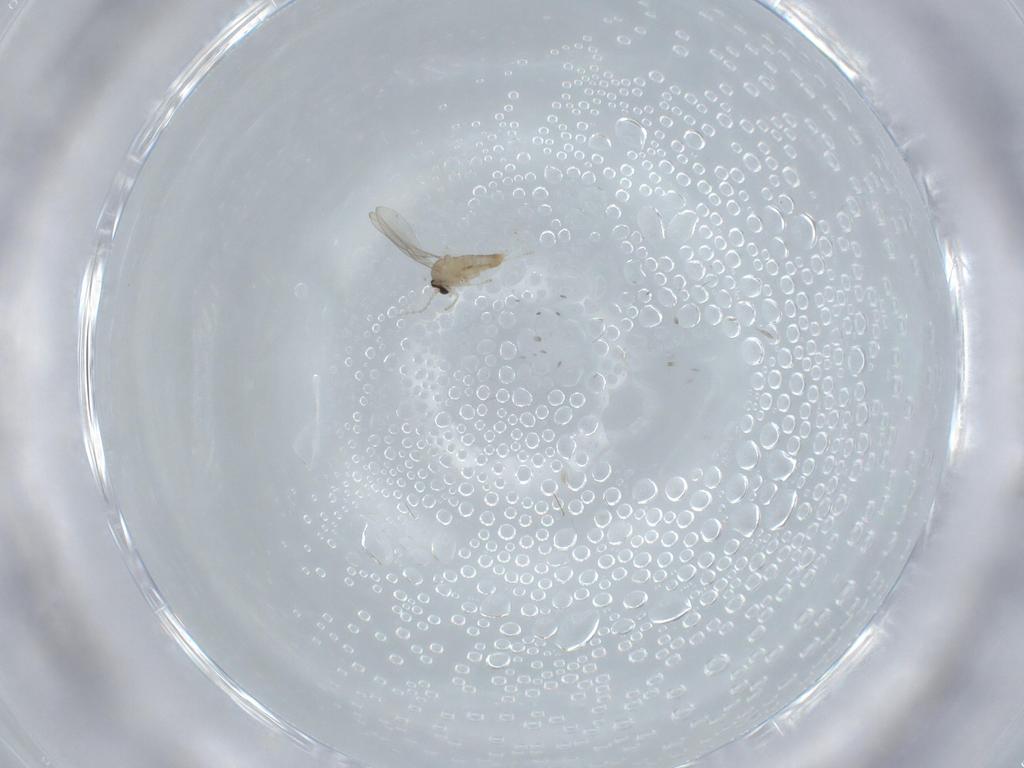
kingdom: Animalia
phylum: Arthropoda
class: Insecta
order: Diptera
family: Cecidomyiidae
